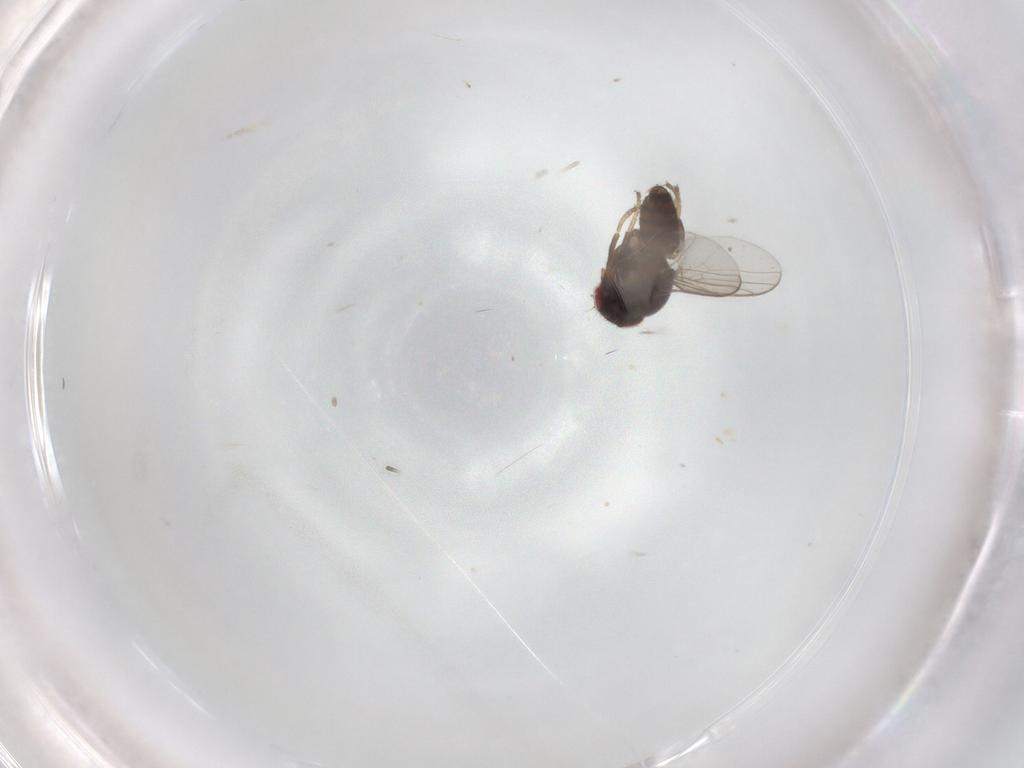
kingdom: Animalia
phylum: Arthropoda
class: Insecta
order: Diptera
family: Chloropidae
